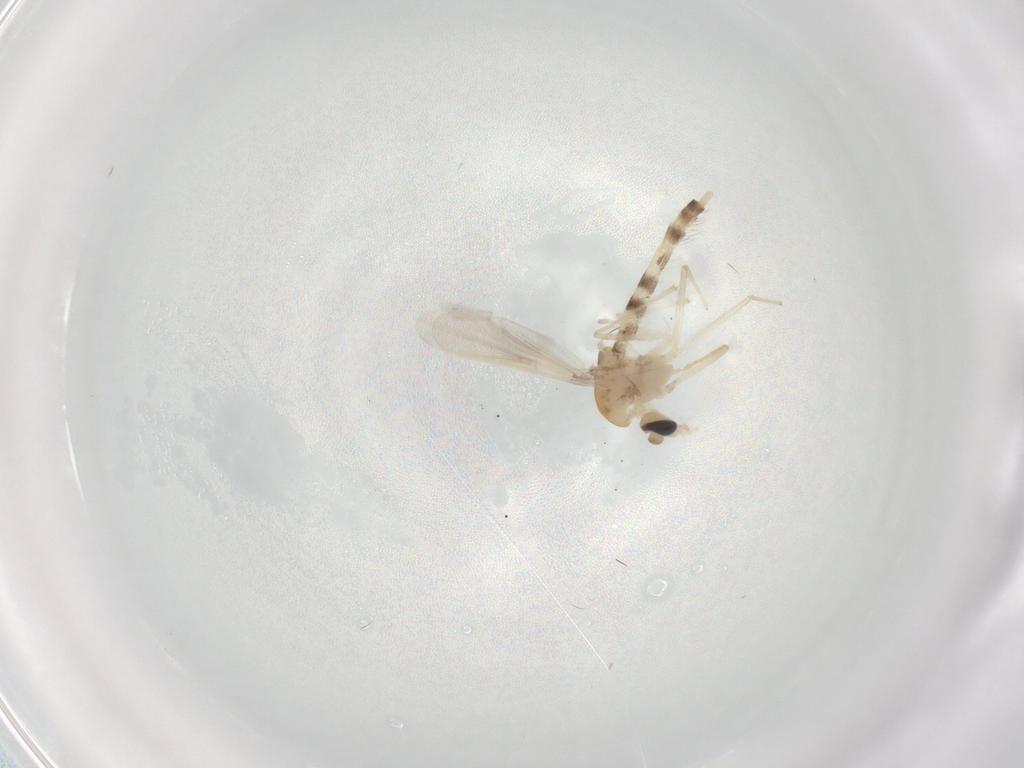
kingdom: Animalia
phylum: Arthropoda
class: Insecta
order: Diptera
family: Chironomidae
